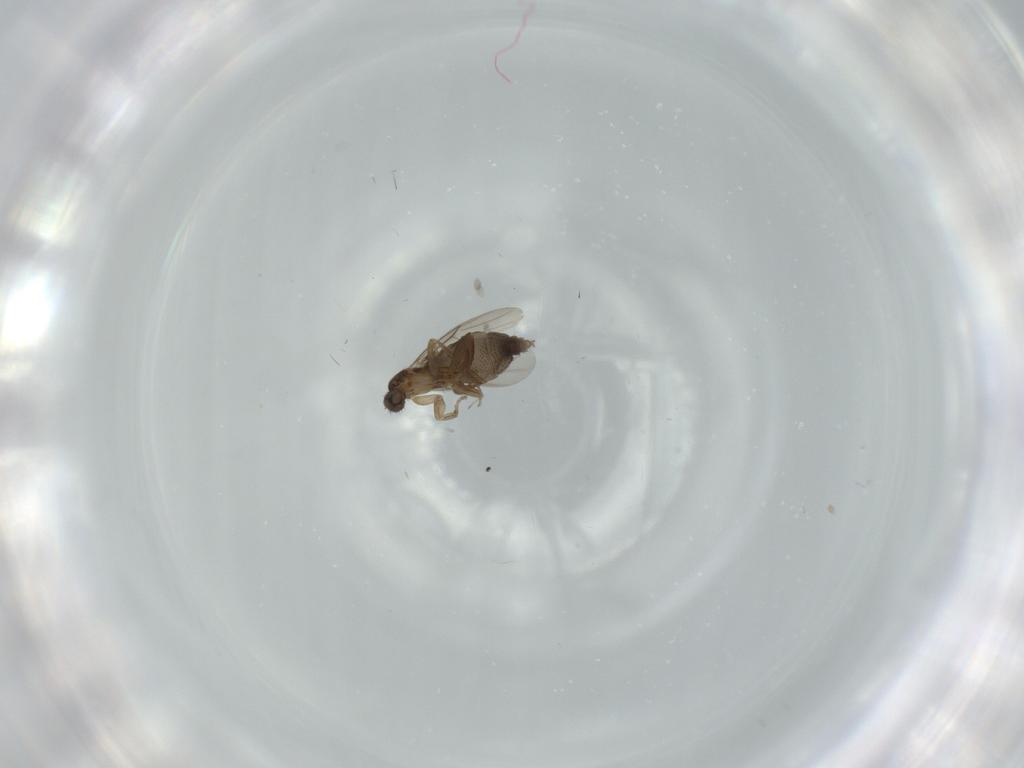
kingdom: Animalia
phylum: Arthropoda
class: Insecta
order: Diptera
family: Phoridae
